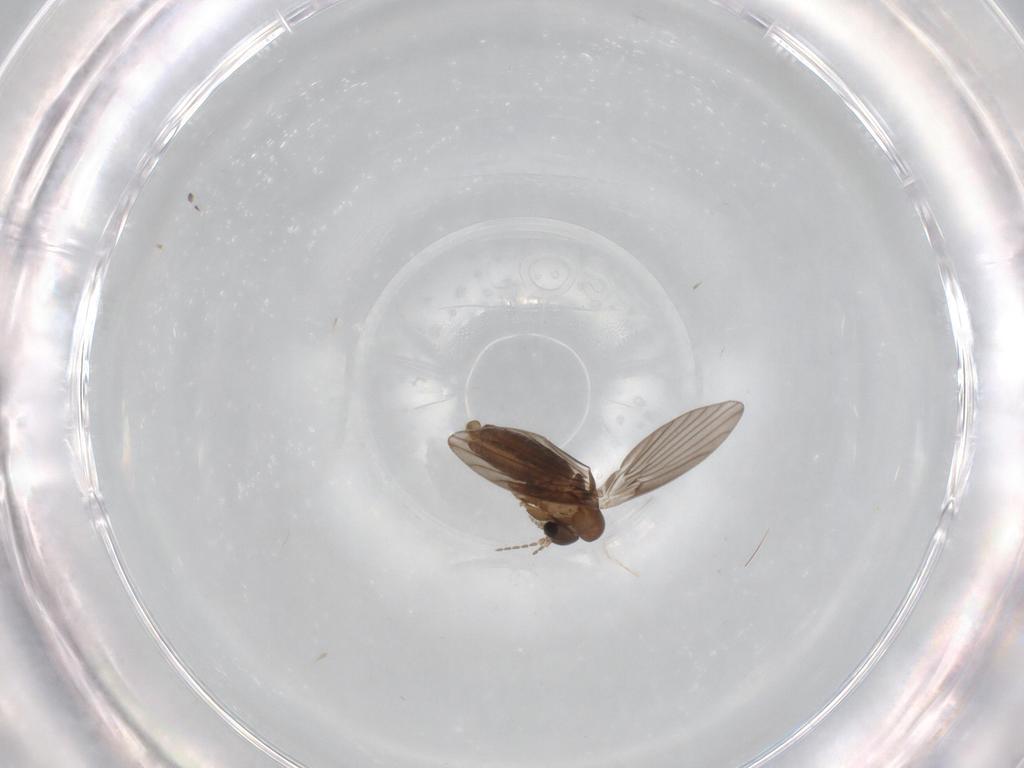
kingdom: Animalia
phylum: Arthropoda
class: Insecta
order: Diptera
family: Psychodidae
